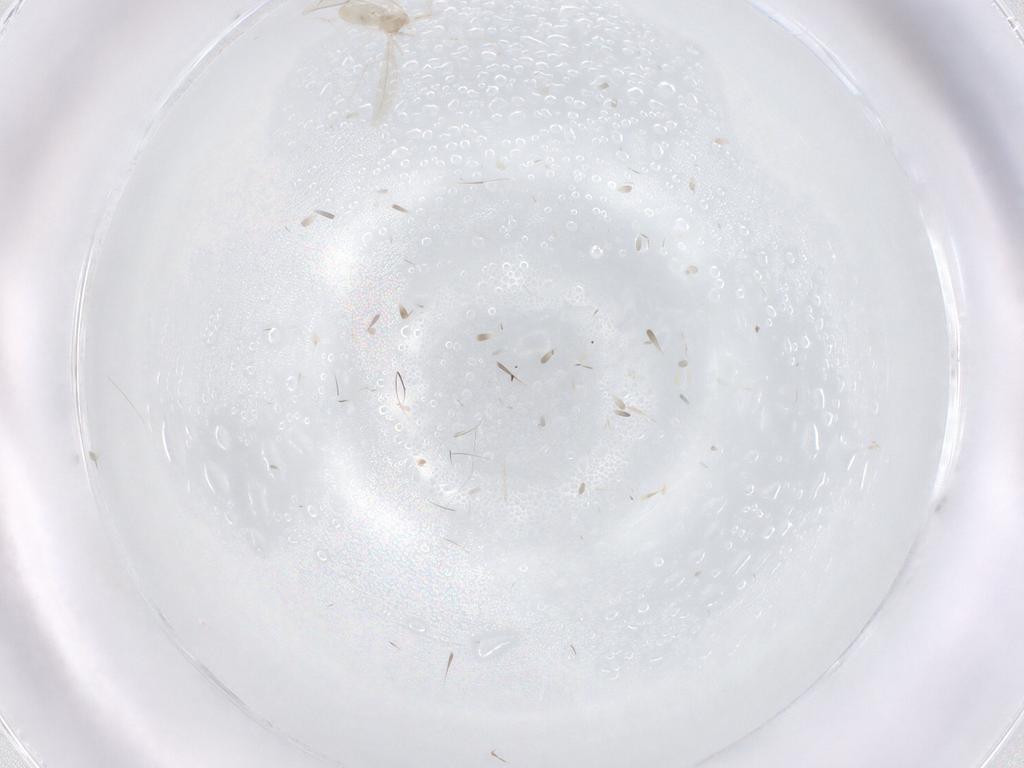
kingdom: Animalia
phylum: Arthropoda
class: Insecta
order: Diptera
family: Cecidomyiidae
